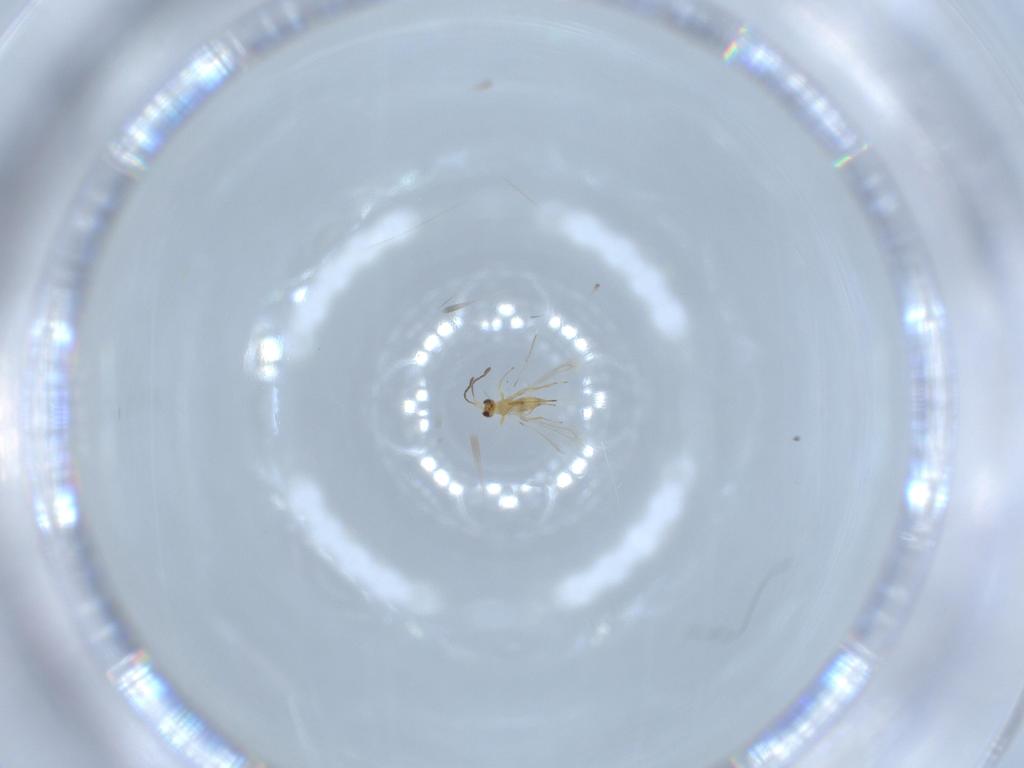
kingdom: Animalia
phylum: Arthropoda
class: Insecta
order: Hymenoptera
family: Mymaridae
